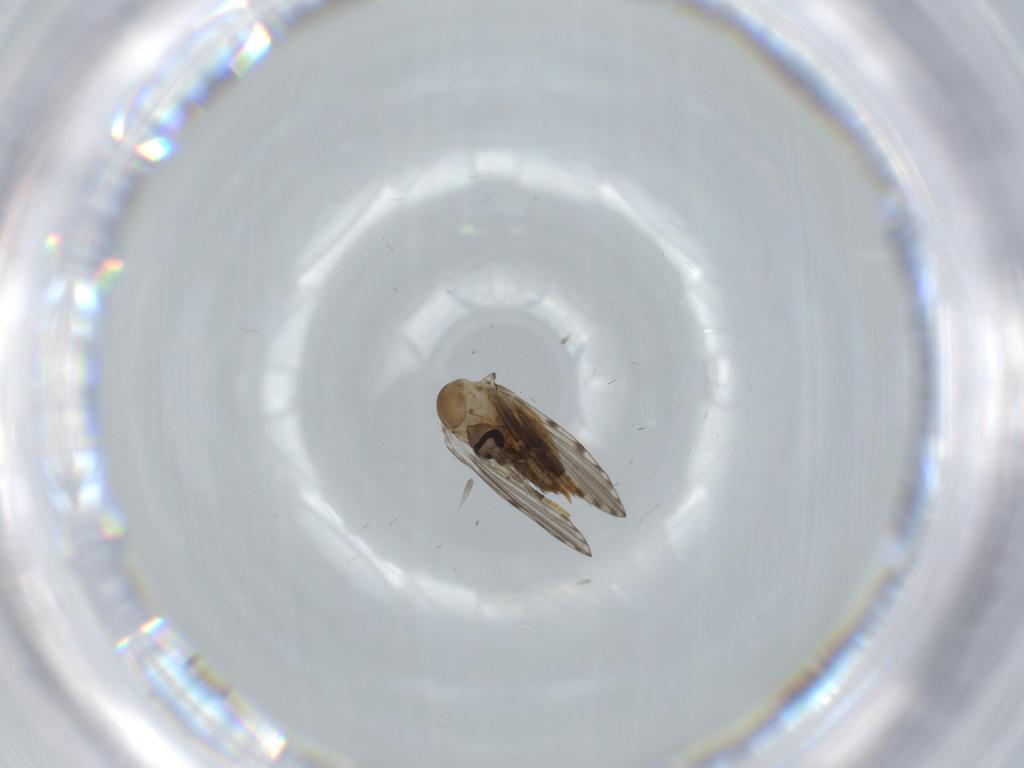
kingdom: Animalia
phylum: Arthropoda
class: Insecta
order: Diptera
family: Psychodidae
